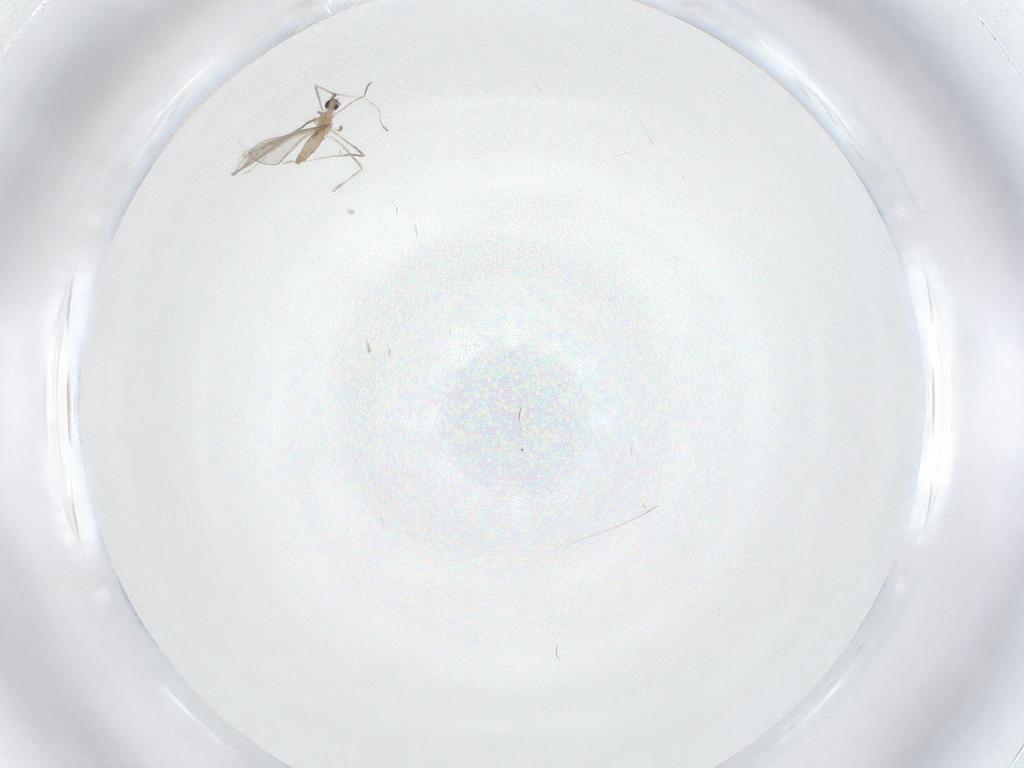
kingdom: Animalia
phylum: Arthropoda
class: Insecta
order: Diptera
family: Cecidomyiidae
